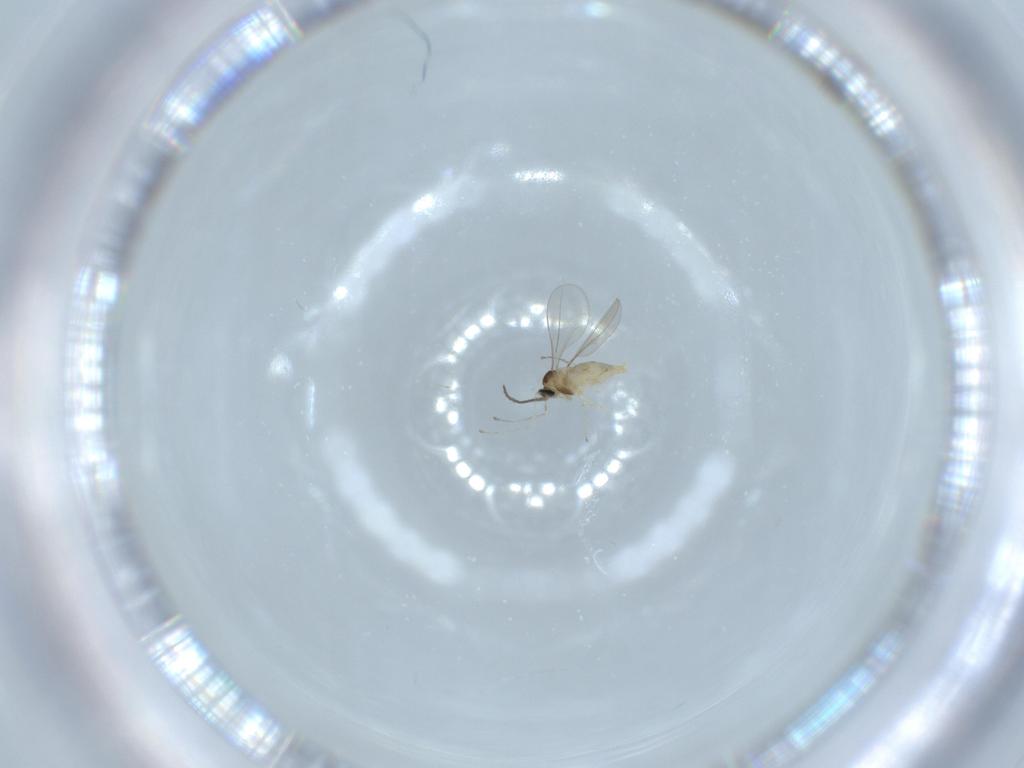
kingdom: Animalia
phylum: Arthropoda
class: Insecta
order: Diptera
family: Cecidomyiidae
